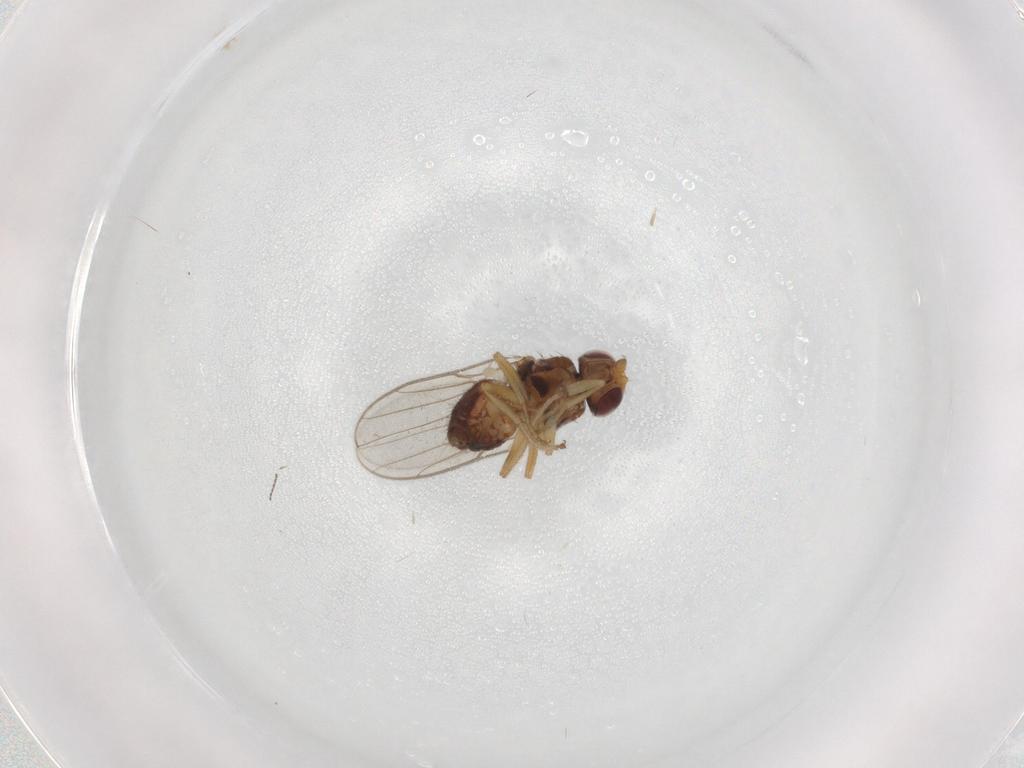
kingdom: Animalia
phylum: Arthropoda
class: Insecta
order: Diptera
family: Chloropidae
